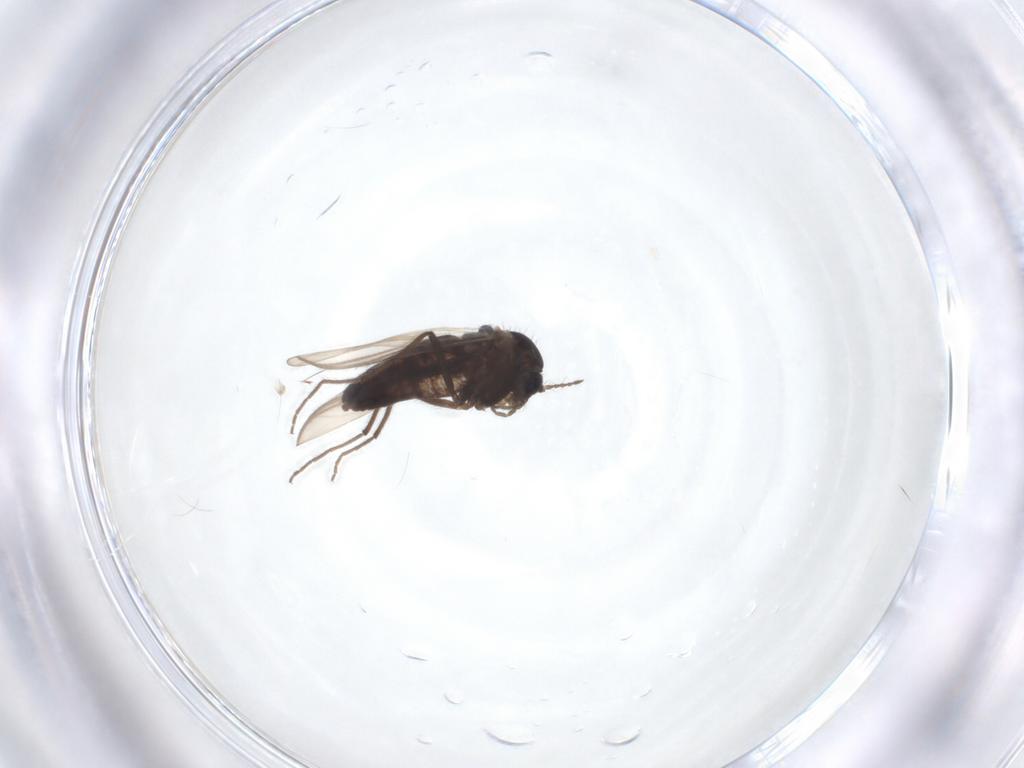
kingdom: Animalia
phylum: Arthropoda
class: Insecta
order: Diptera
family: Chironomidae
